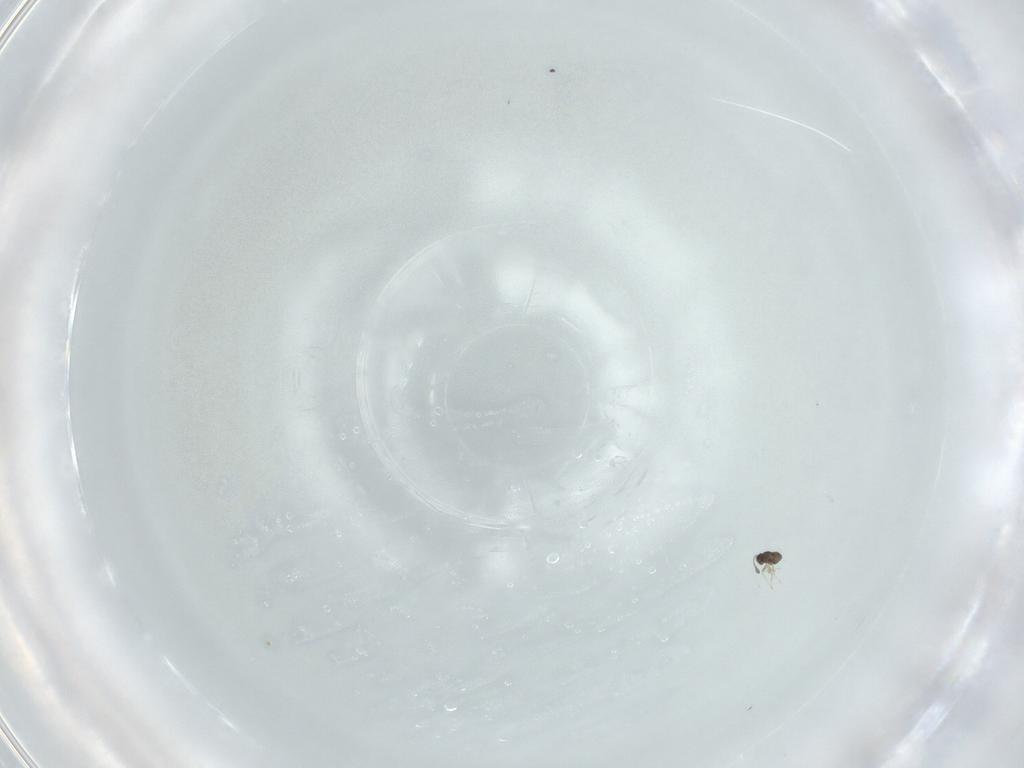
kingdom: Animalia
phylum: Arthropoda
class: Insecta
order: Hymenoptera
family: Mymaridae
